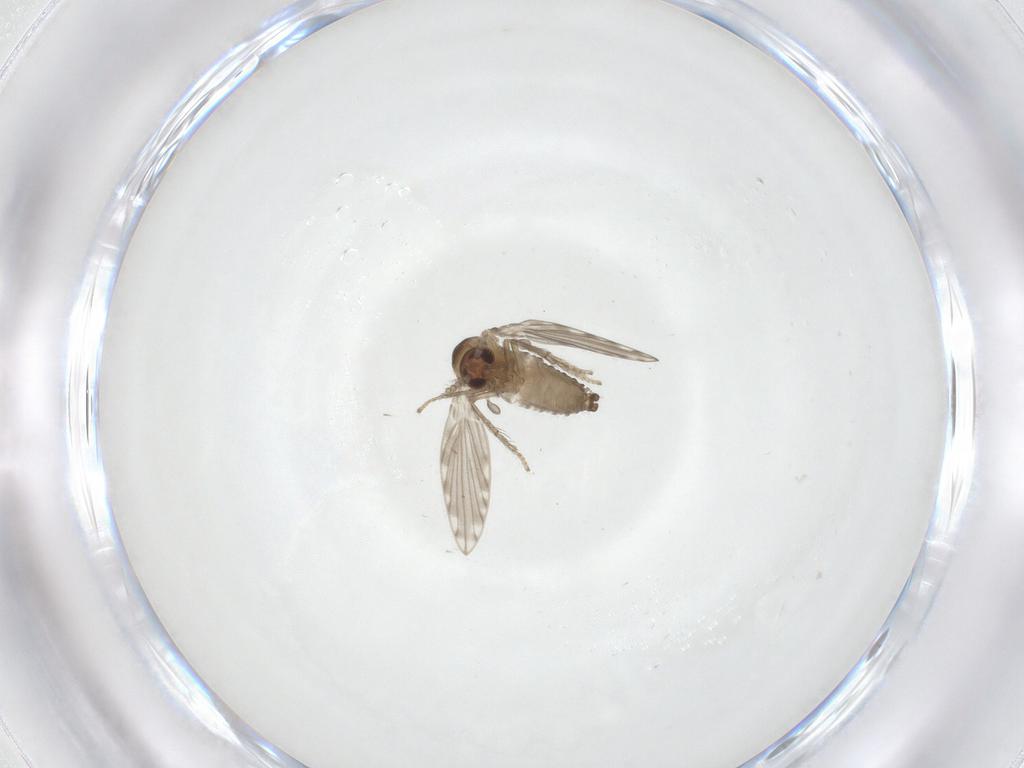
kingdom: Animalia
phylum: Arthropoda
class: Insecta
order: Diptera
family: Psychodidae
